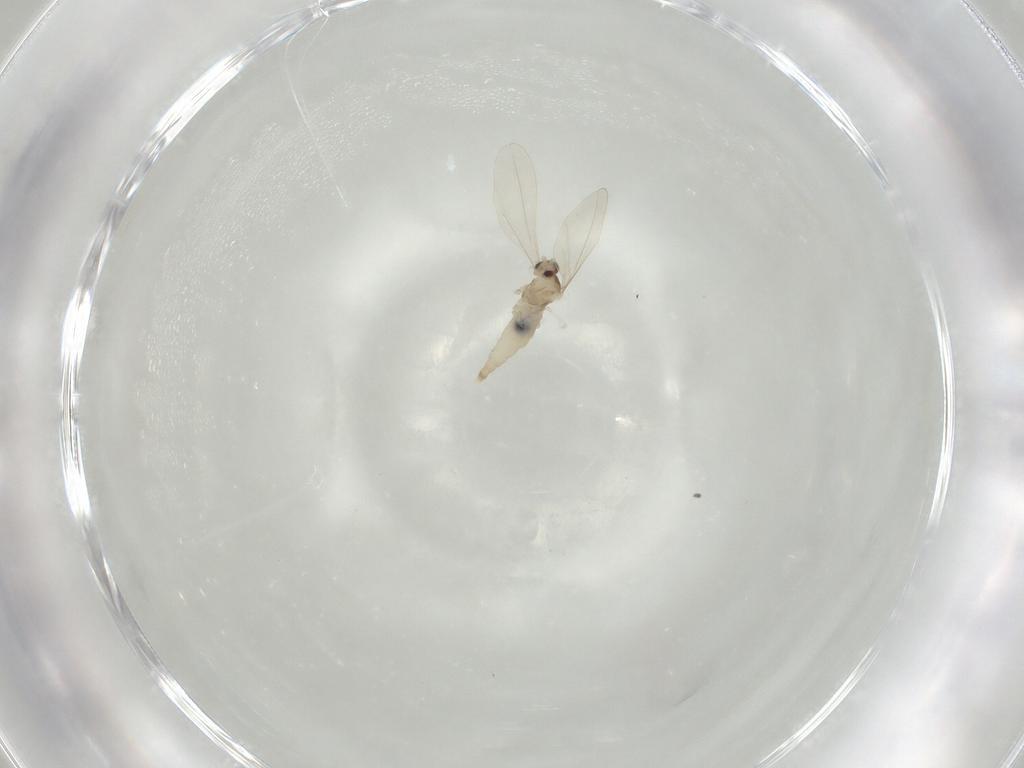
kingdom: Animalia
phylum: Arthropoda
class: Insecta
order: Diptera
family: Cecidomyiidae
